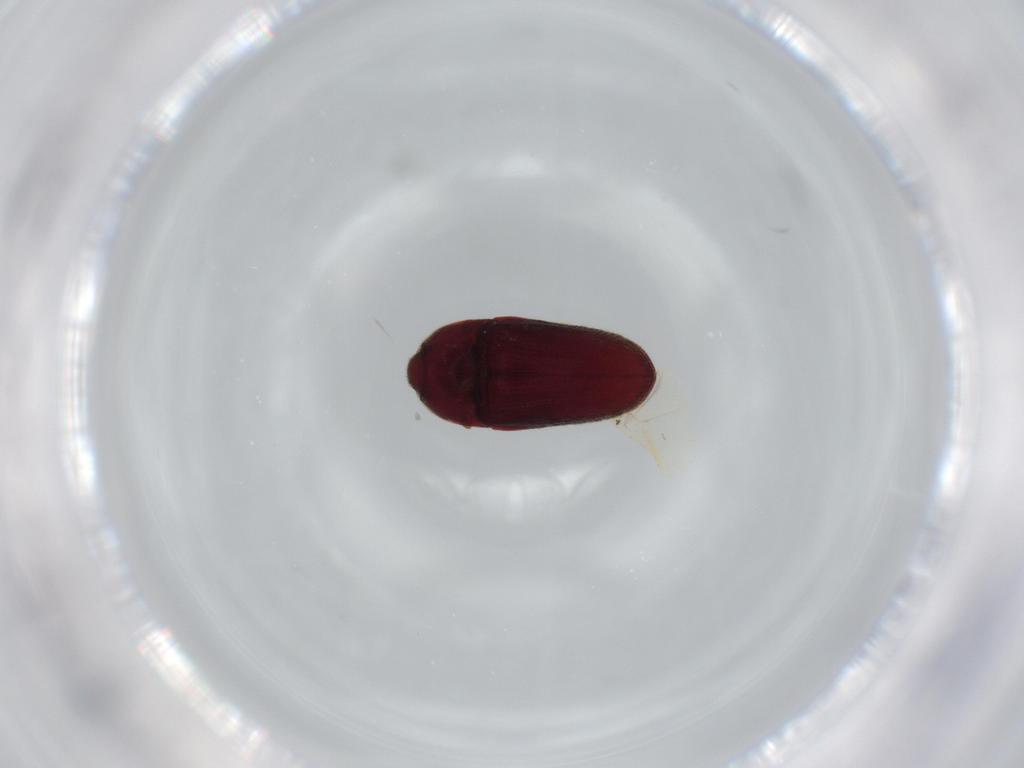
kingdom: Animalia
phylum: Arthropoda
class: Insecta
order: Coleoptera
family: Throscidae
